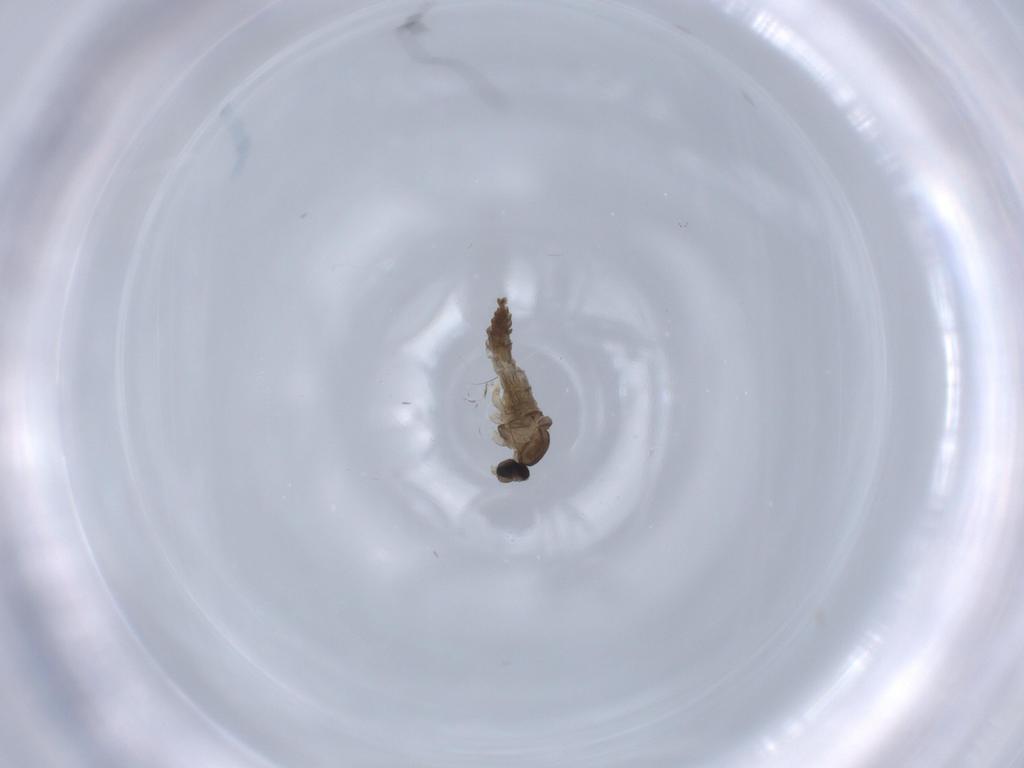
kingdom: Animalia
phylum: Arthropoda
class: Insecta
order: Diptera
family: Cecidomyiidae
